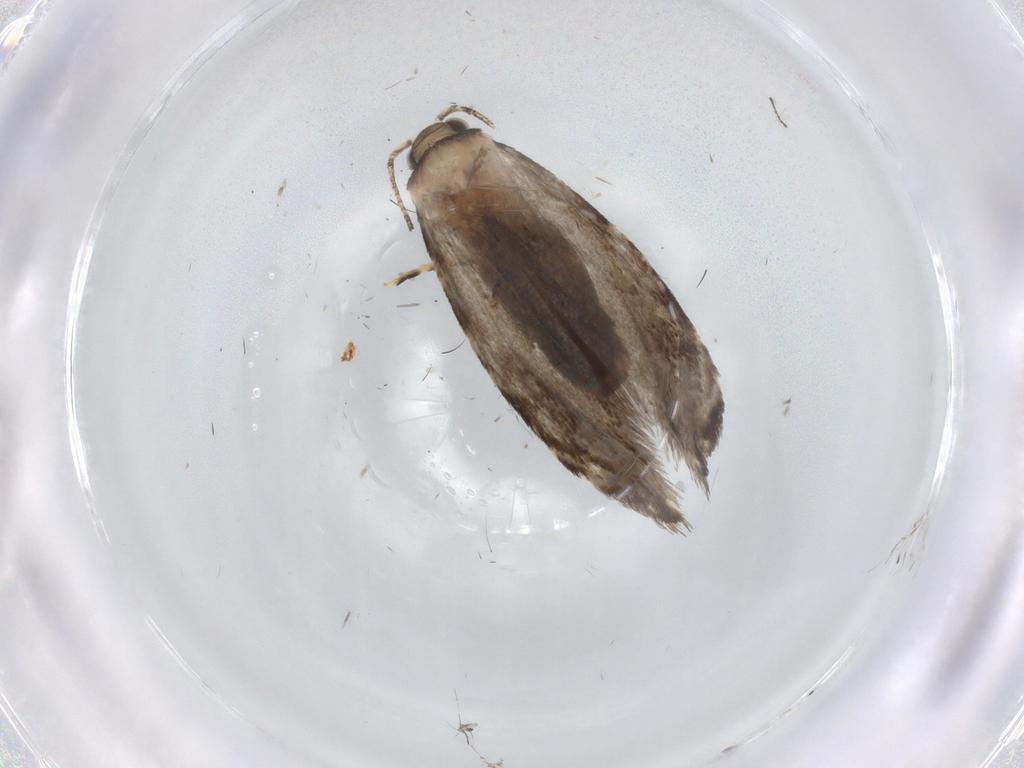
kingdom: Animalia
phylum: Arthropoda
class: Insecta
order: Lepidoptera
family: Tineidae
